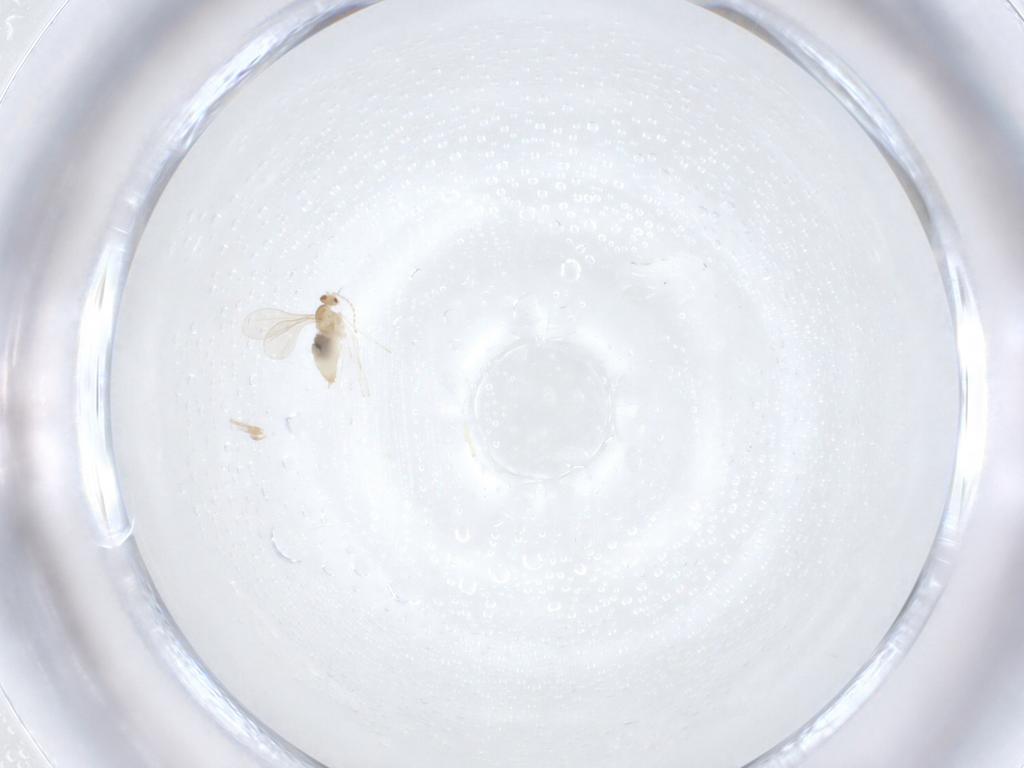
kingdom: Animalia
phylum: Arthropoda
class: Insecta
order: Diptera
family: Cecidomyiidae
